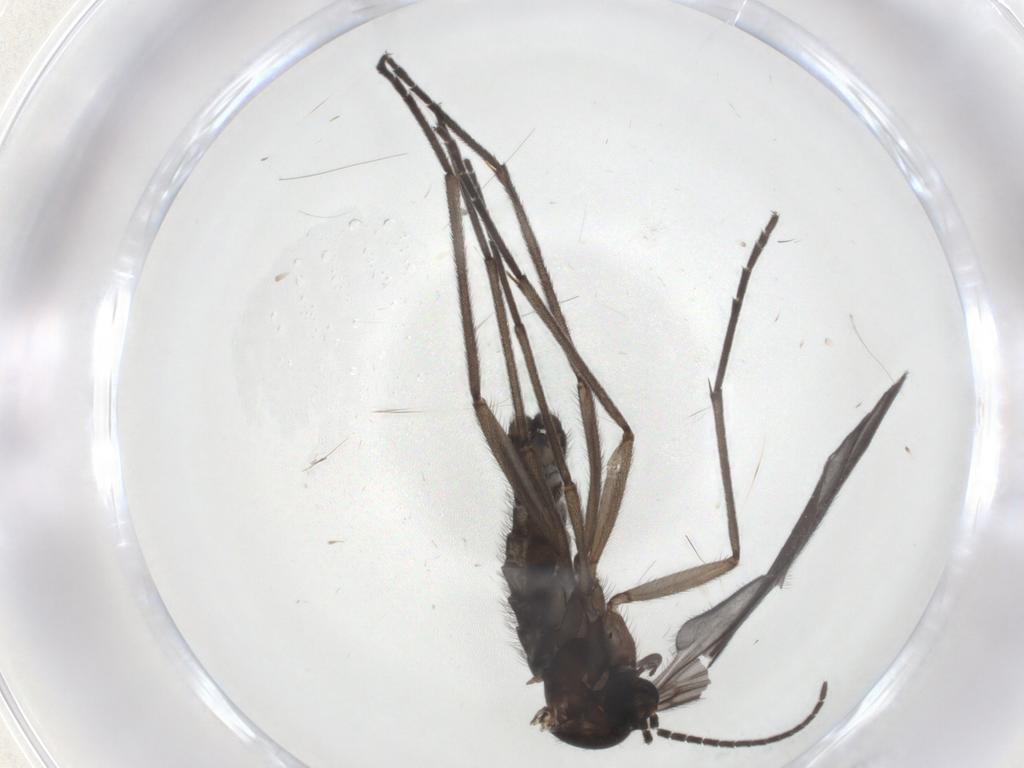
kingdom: Animalia
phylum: Arthropoda
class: Insecta
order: Diptera
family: Sciaridae
